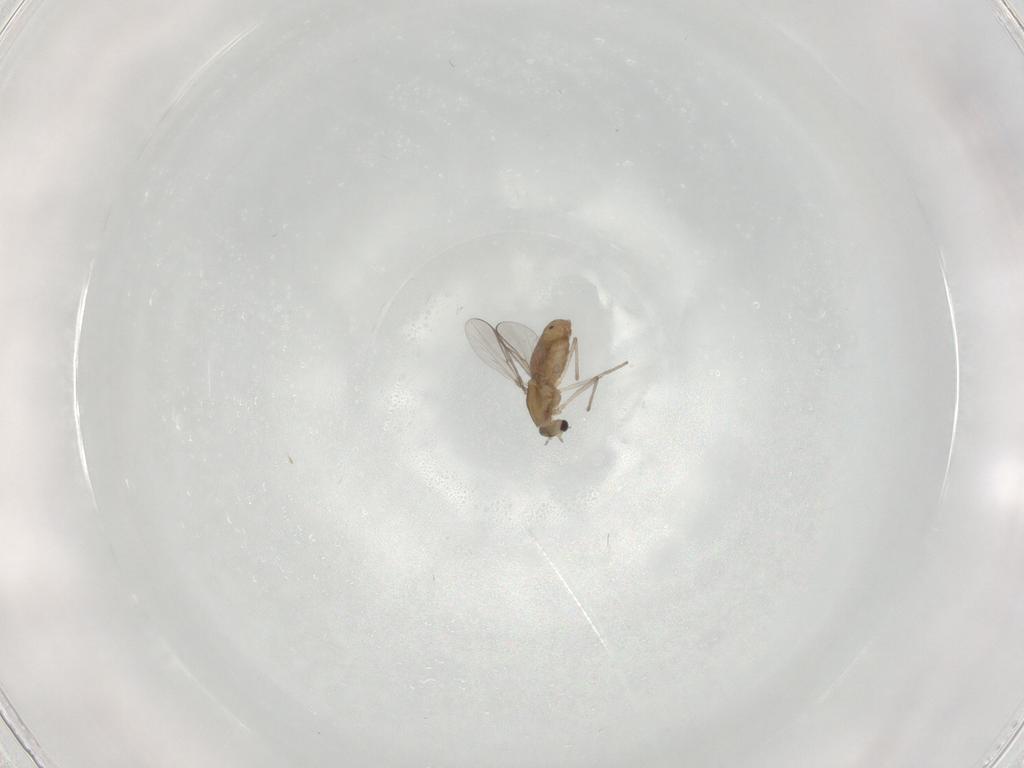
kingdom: Animalia
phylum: Arthropoda
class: Insecta
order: Diptera
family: Chironomidae
